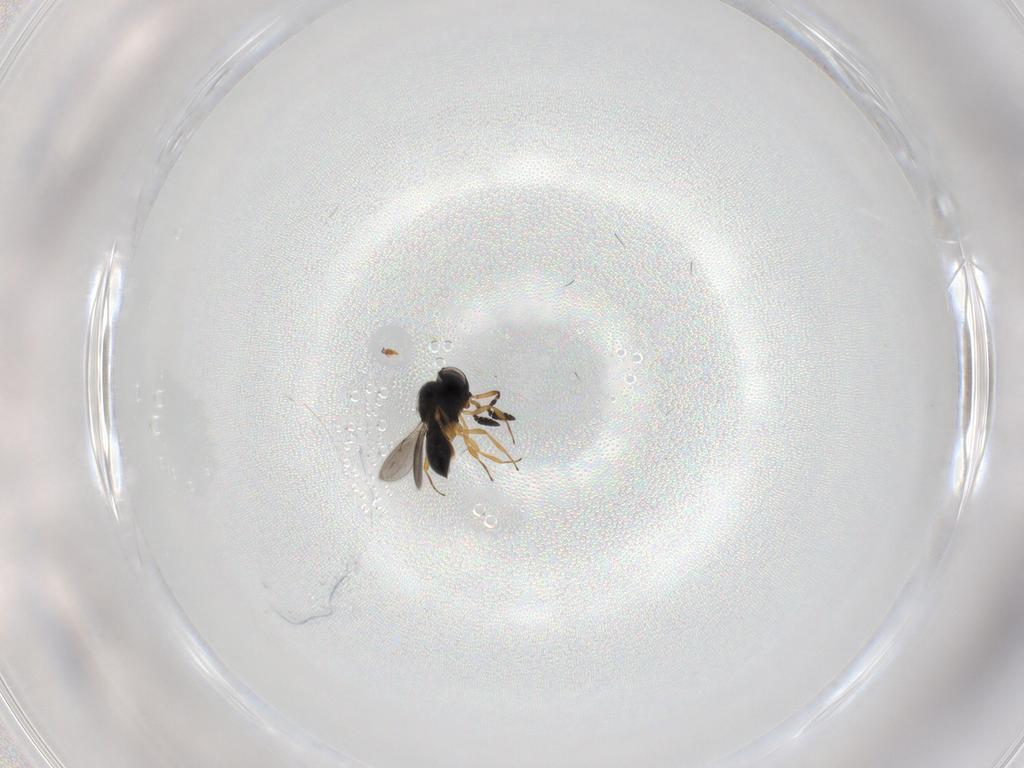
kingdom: Animalia
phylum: Arthropoda
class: Insecta
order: Hymenoptera
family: Scelionidae
